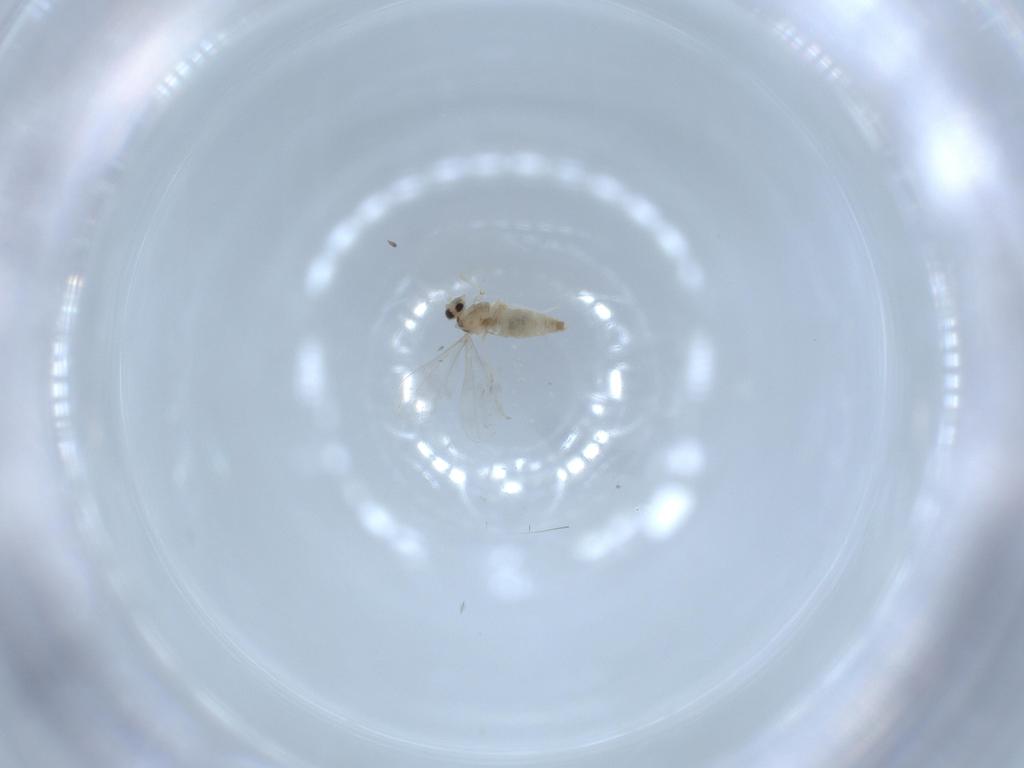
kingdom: Animalia
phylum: Arthropoda
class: Insecta
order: Diptera
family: Cecidomyiidae
